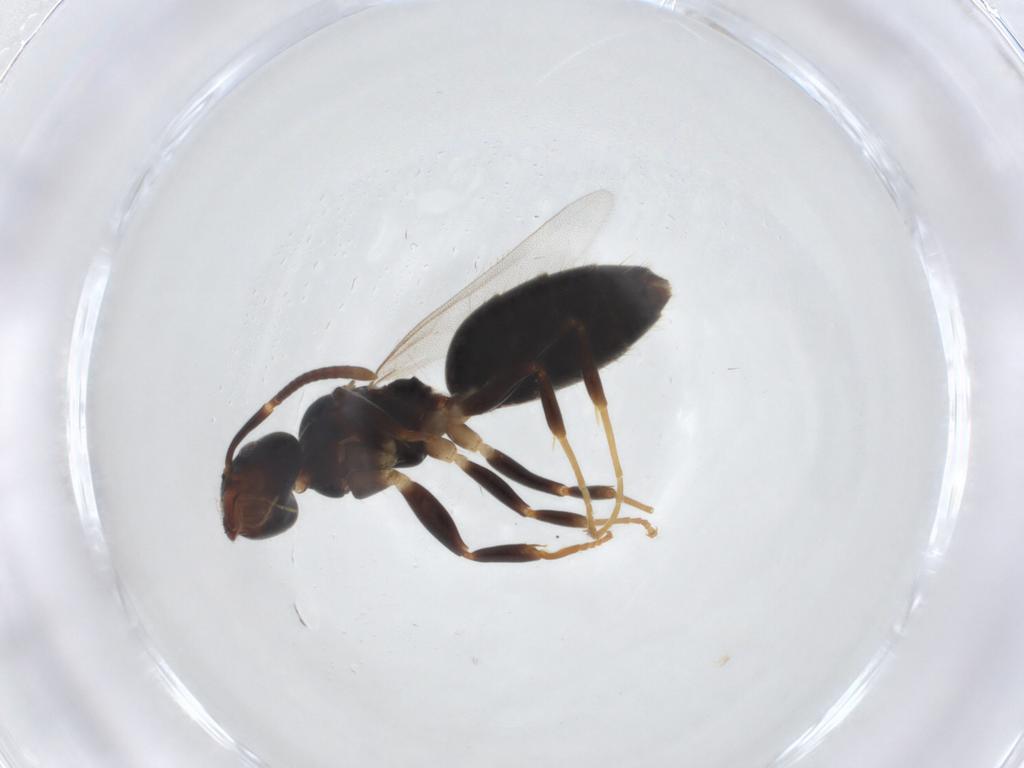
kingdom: Animalia
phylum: Arthropoda
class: Insecta
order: Hymenoptera
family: Formicidae
